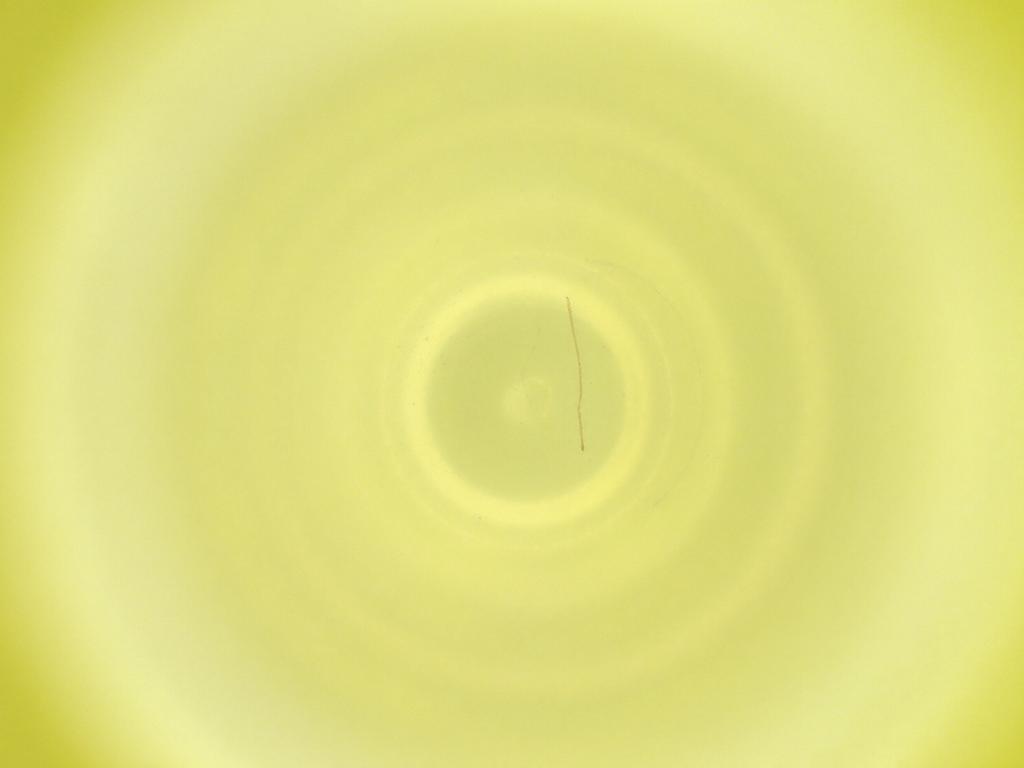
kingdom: Animalia
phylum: Arthropoda
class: Insecta
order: Diptera
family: Cecidomyiidae
